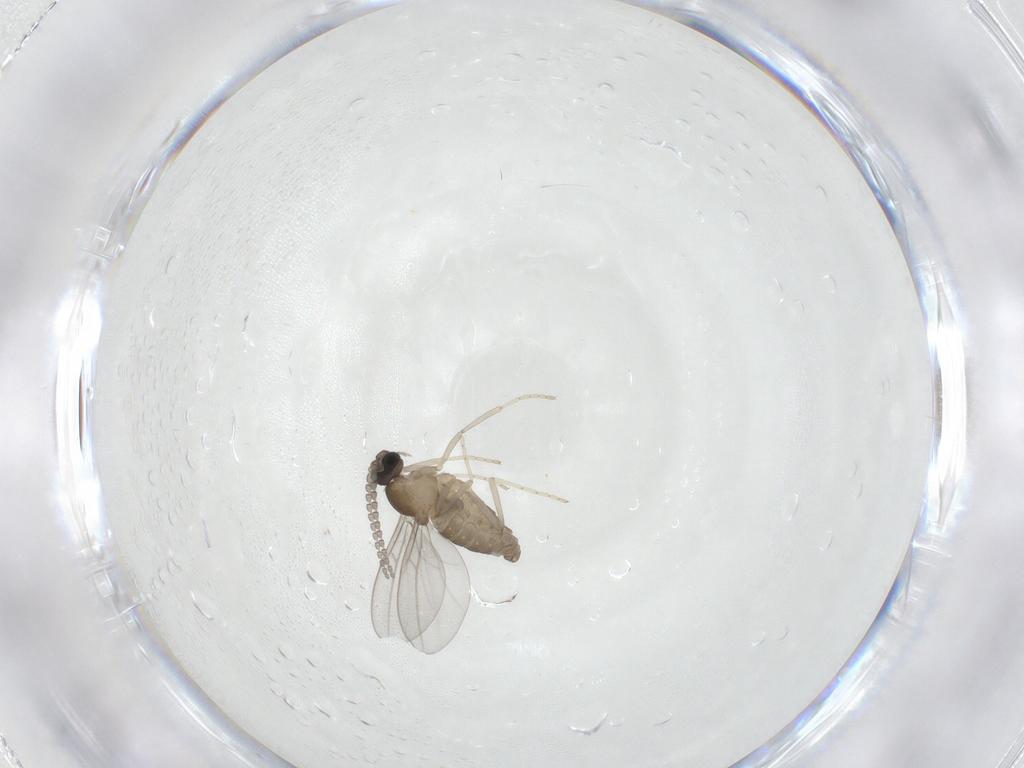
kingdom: Animalia
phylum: Arthropoda
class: Insecta
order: Diptera
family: Cecidomyiidae
